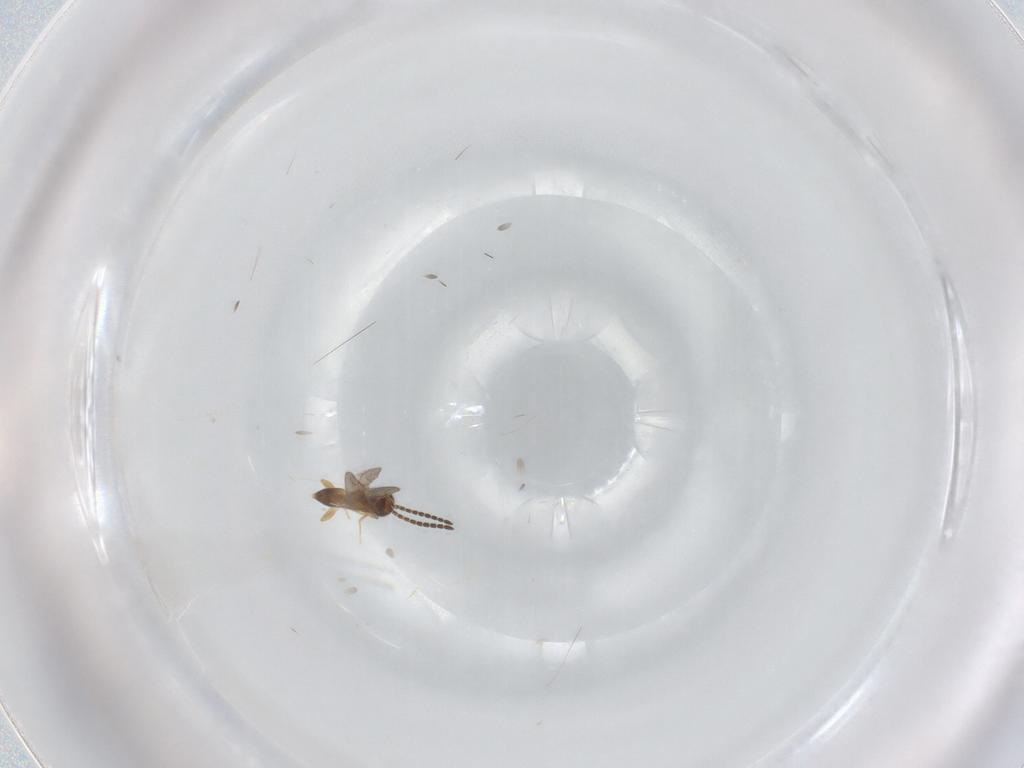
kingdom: Animalia
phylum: Arthropoda
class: Insecta
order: Hymenoptera
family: Ceraphronidae
